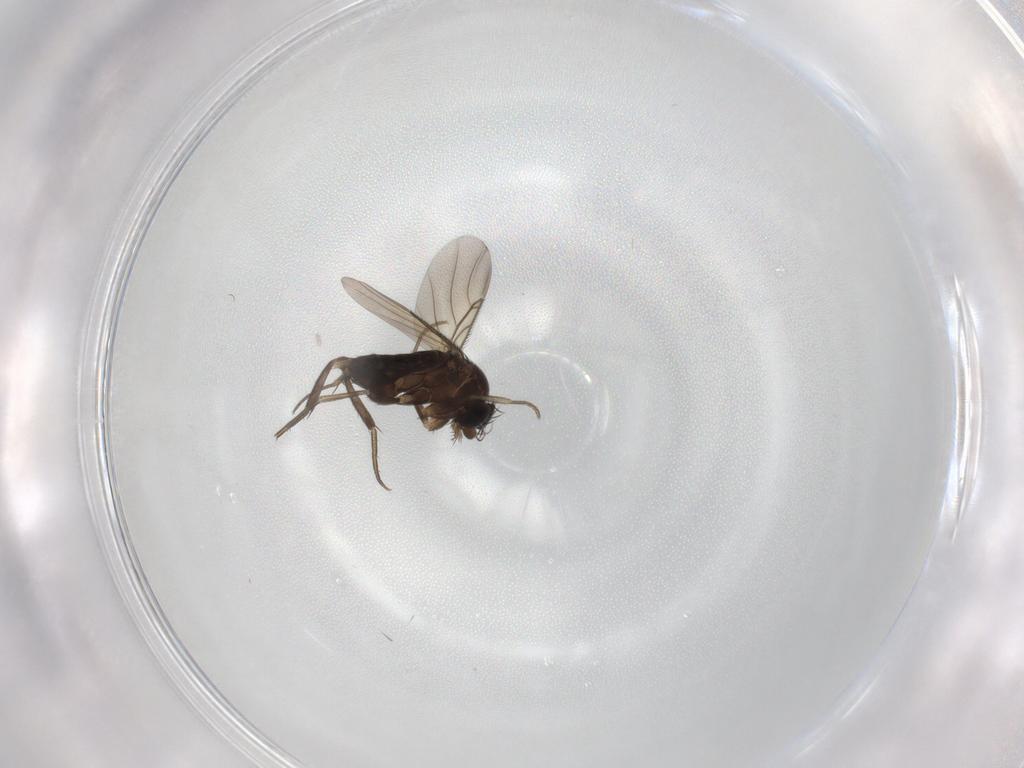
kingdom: Animalia
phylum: Arthropoda
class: Insecta
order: Diptera
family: Phoridae
